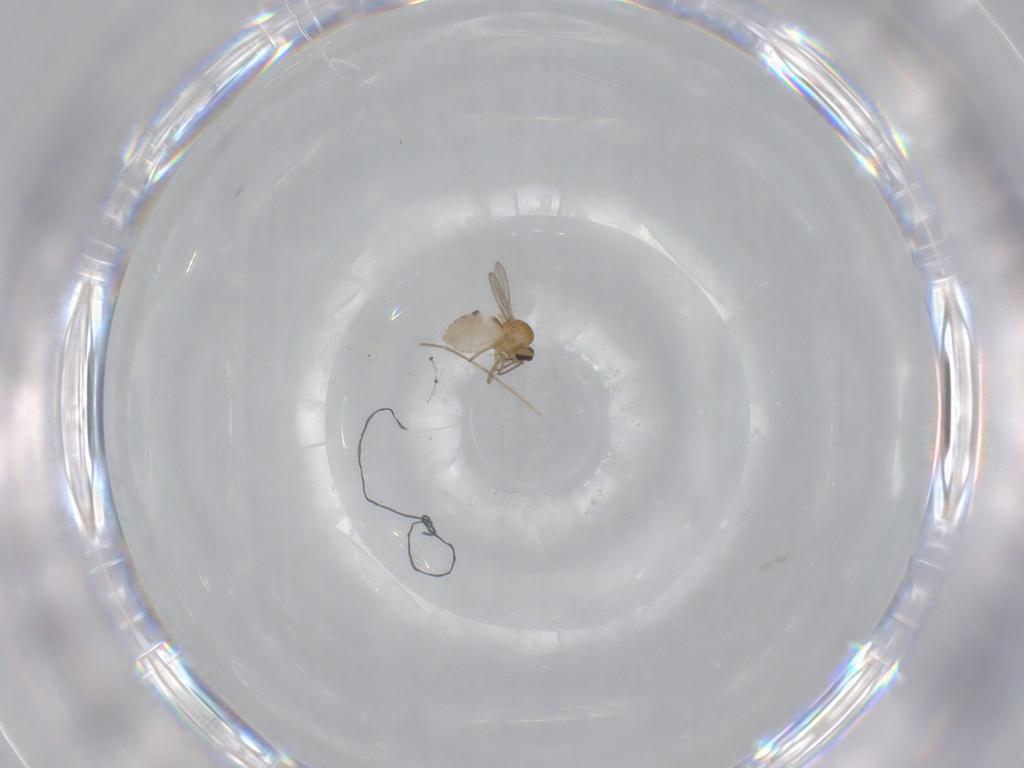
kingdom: Animalia
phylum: Arthropoda
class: Insecta
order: Diptera
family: Ceratopogonidae
